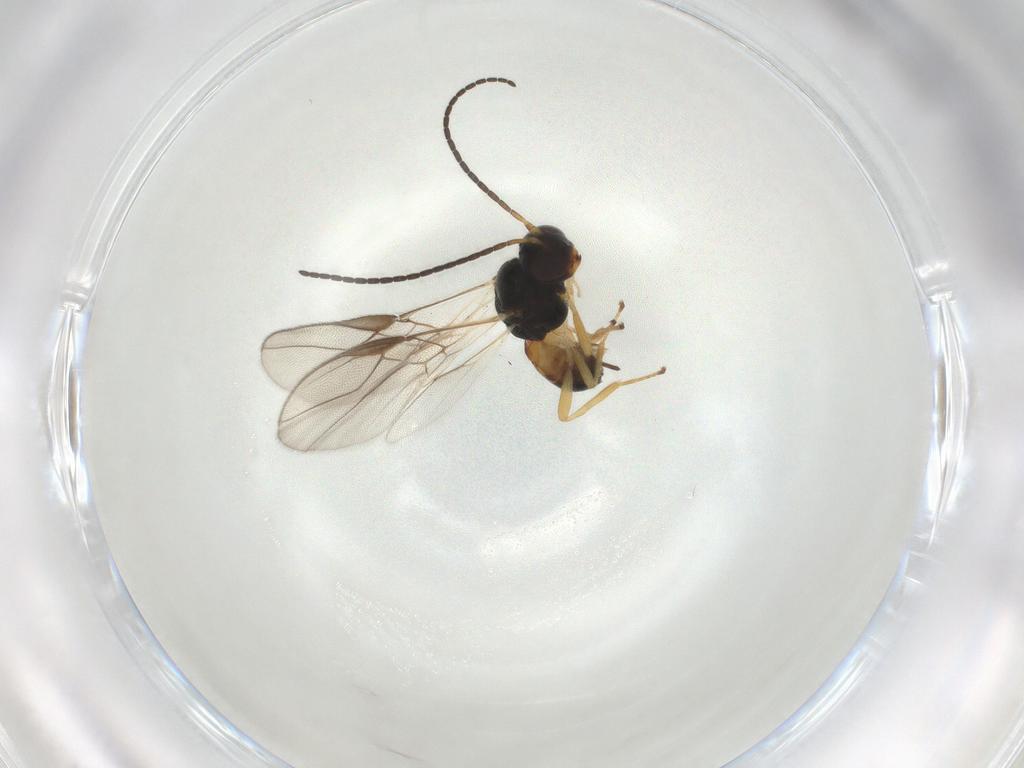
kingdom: Animalia
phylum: Arthropoda
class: Insecta
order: Hymenoptera
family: Braconidae
